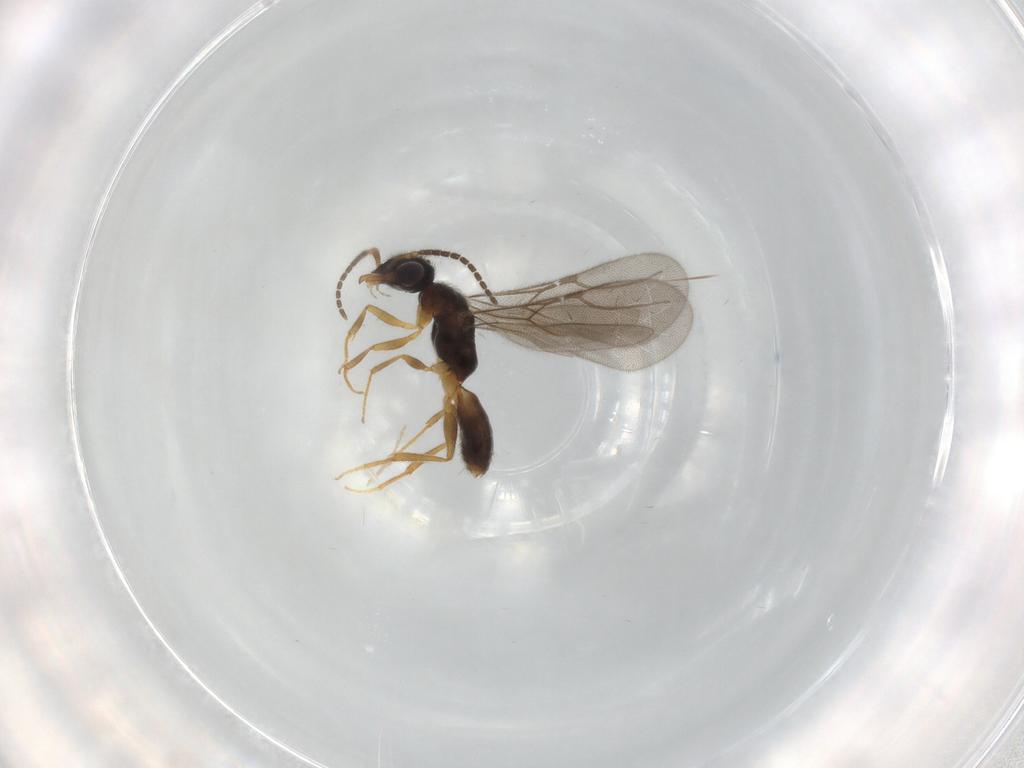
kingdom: Animalia
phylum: Arthropoda
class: Insecta
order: Hymenoptera
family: Bethylidae
